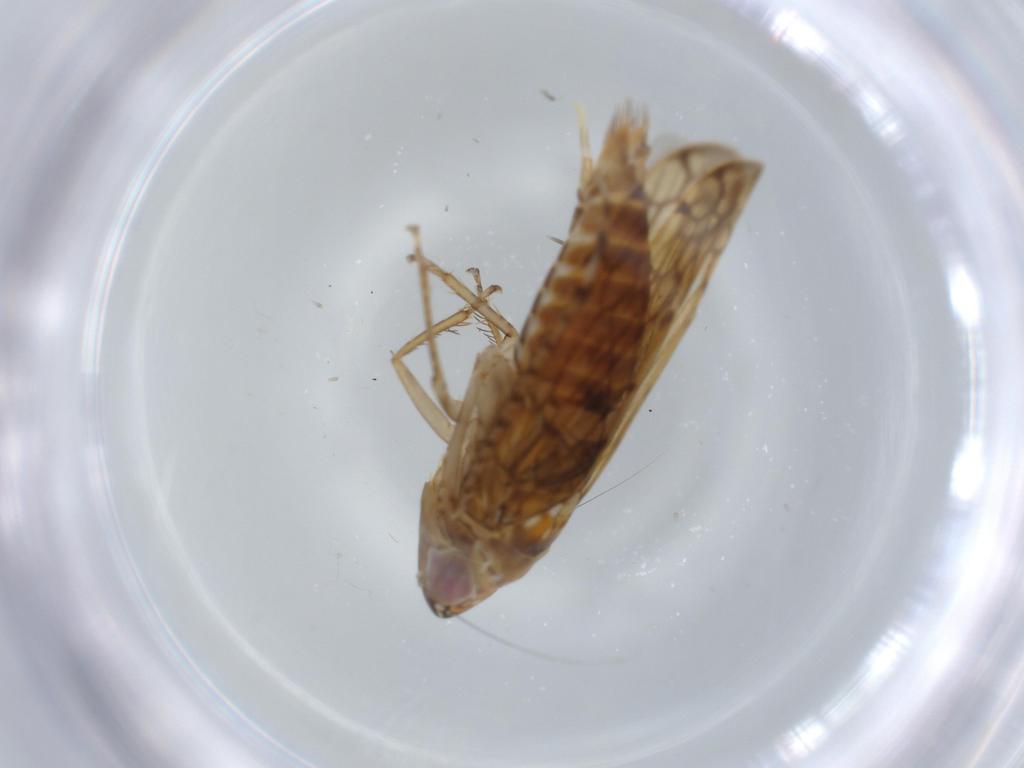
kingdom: Animalia
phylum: Arthropoda
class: Insecta
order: Hemiptera
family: Cicadellidae
